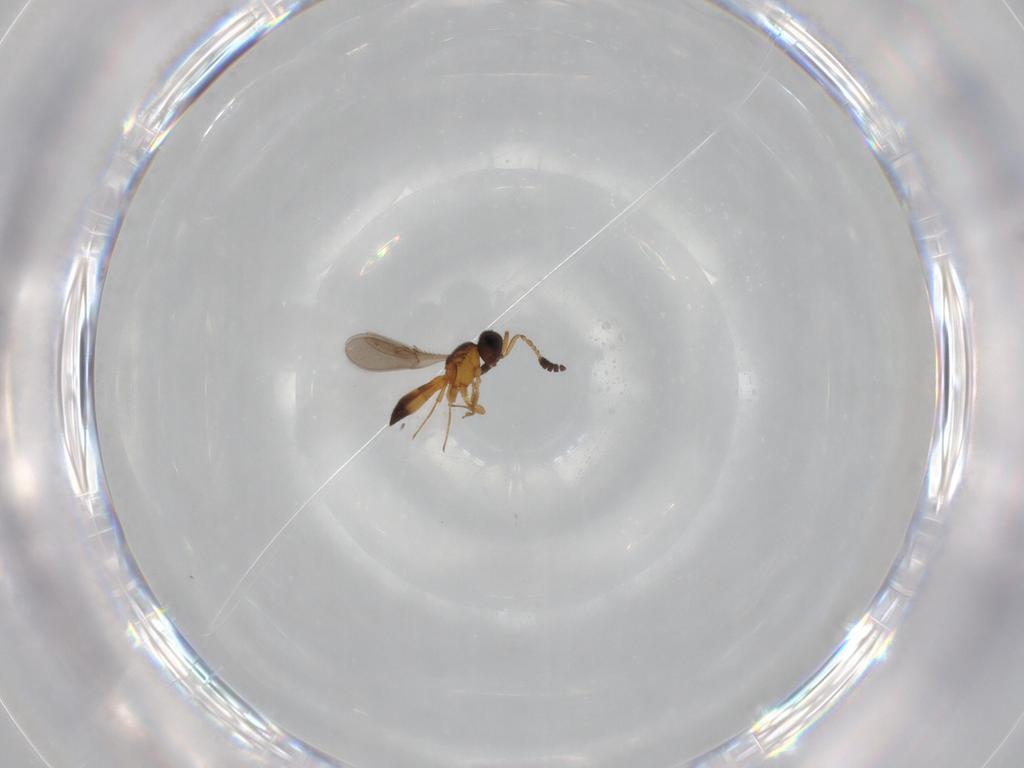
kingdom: Animalia
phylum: Arthropoda
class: Insecta
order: Hymenoptera
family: Scelionidae
